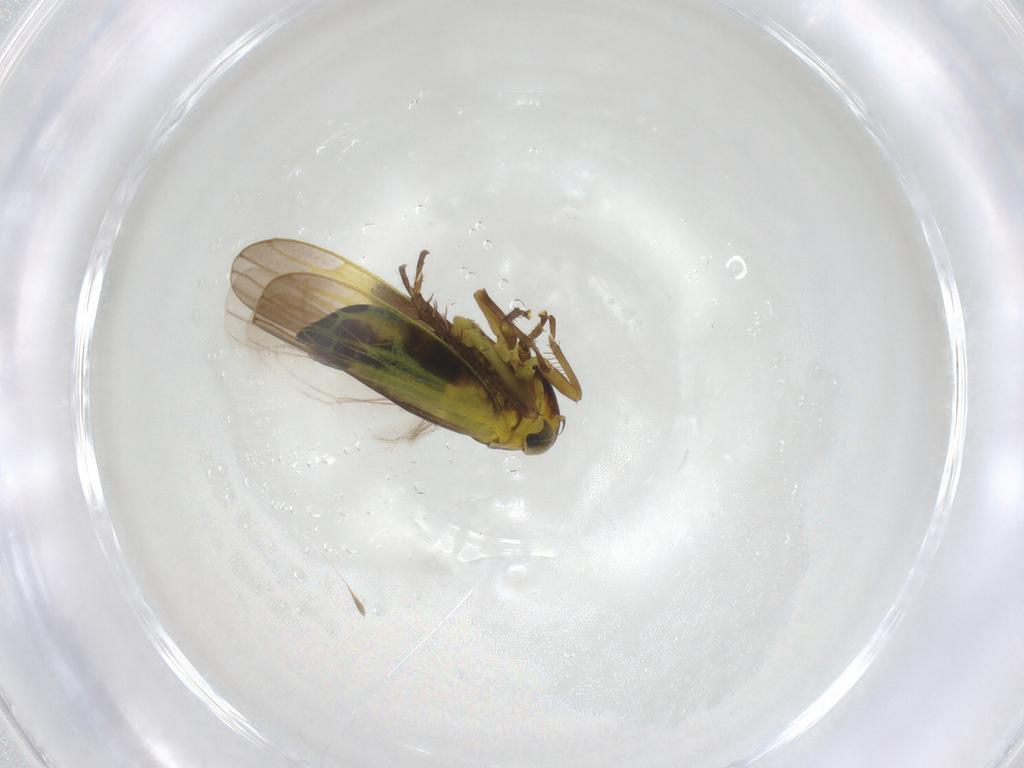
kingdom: Animalia
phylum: Arthropoda
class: Insecta
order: Hemiptera
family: Cicadellidae
